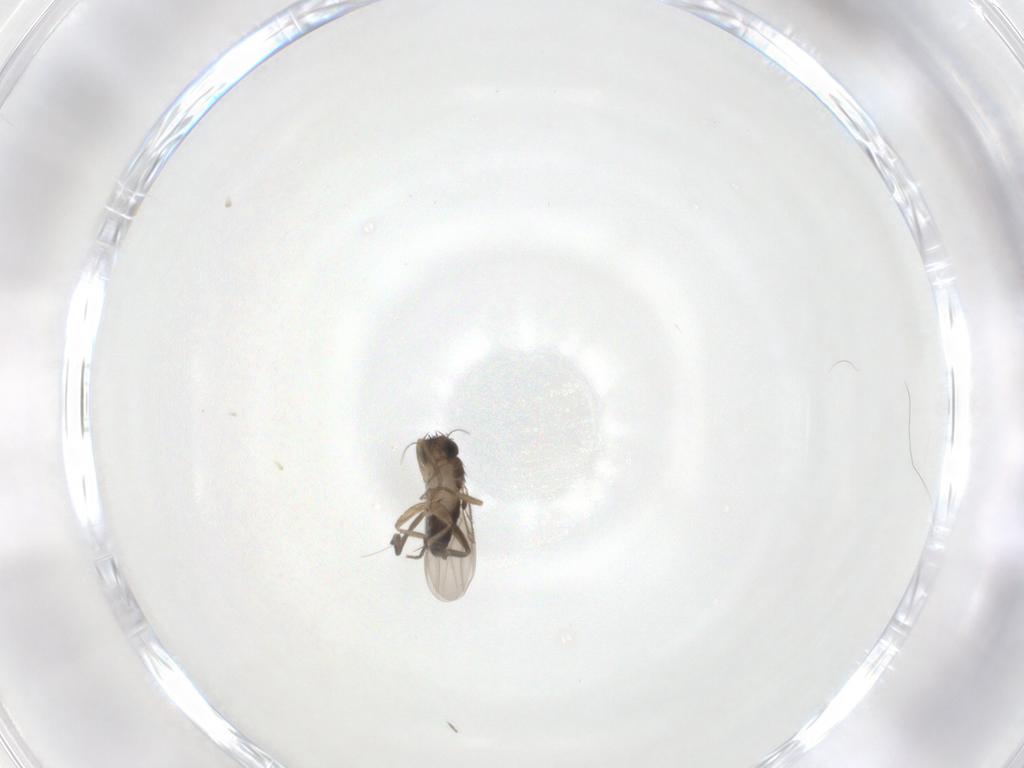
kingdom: Animalia
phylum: Arthropoda
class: Insecta
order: Diptera
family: Phoridae
